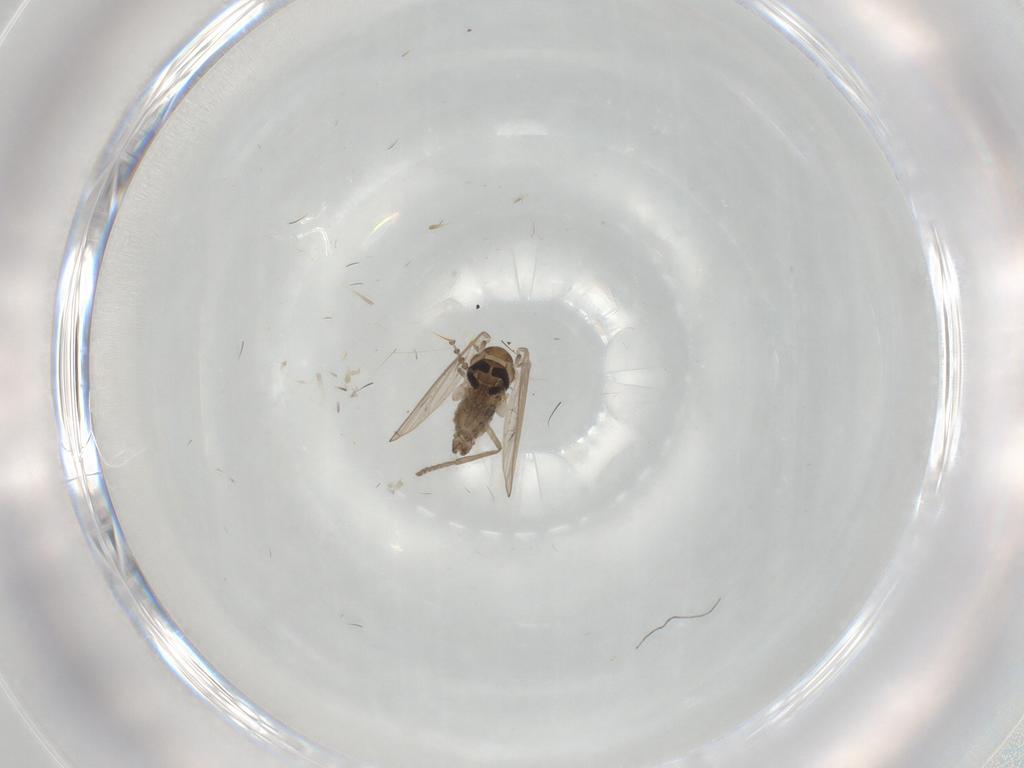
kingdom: Animalia
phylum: Arthropoda
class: Insecta
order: Diptera
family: Psychodidae
